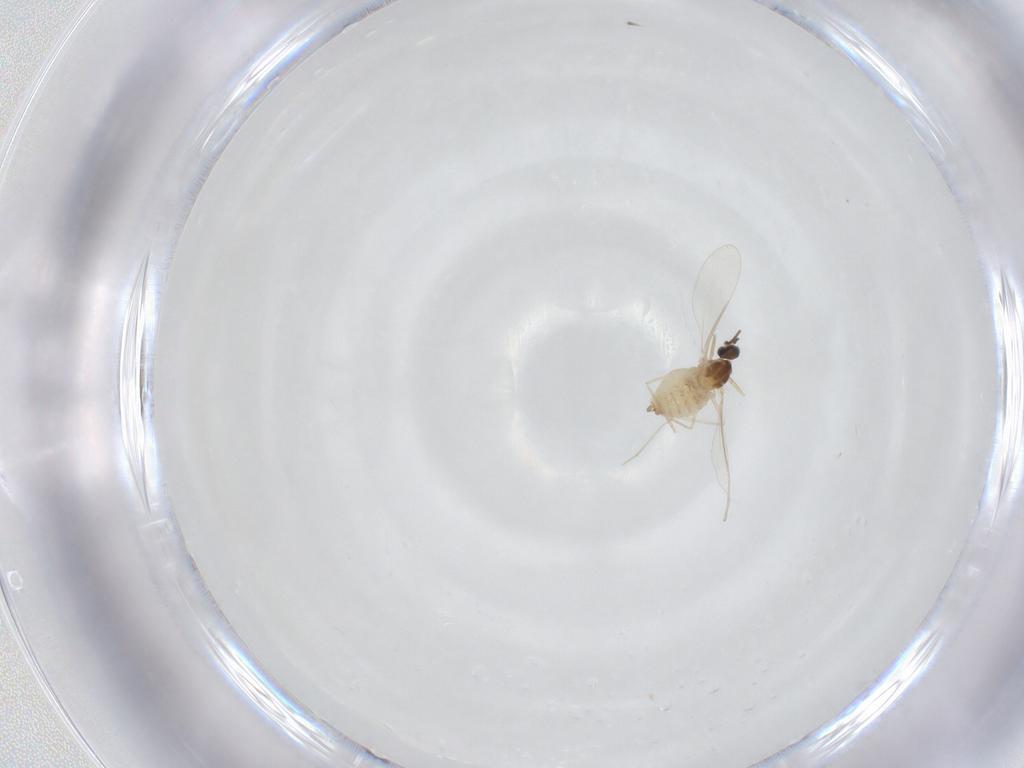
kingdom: Animalia
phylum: Arthropoda
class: Insecta
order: Diptera
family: Cecidomyiidae
